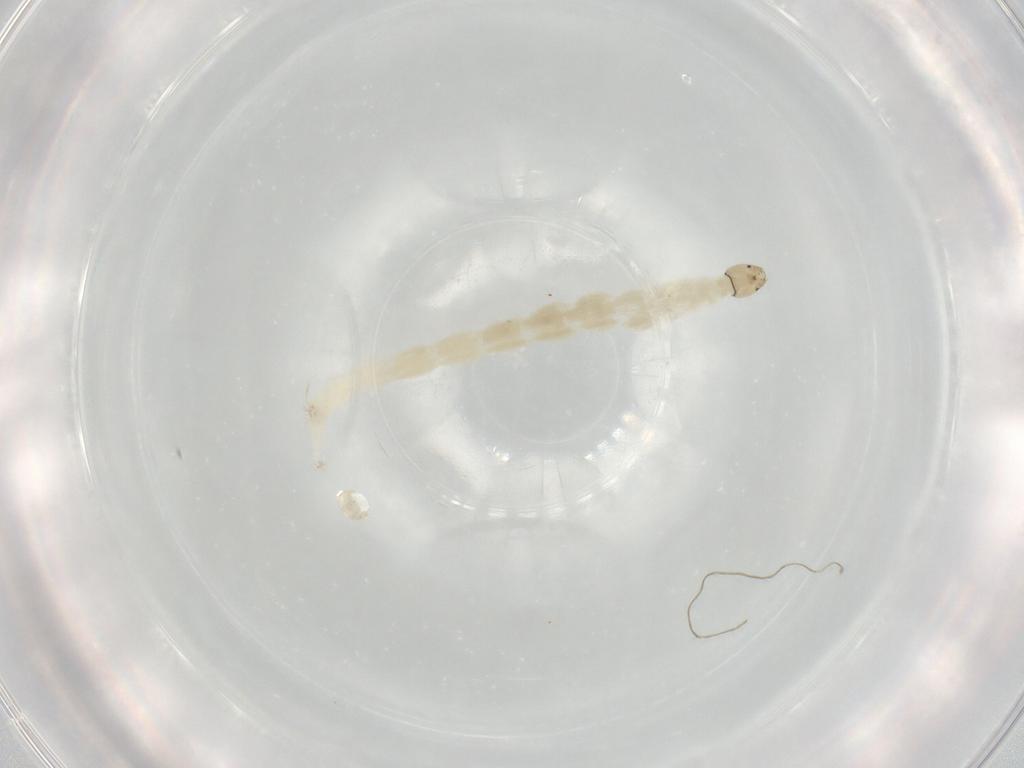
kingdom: Animalia
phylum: Arthropoda
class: Insecta
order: Diptera
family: Chironomidae
